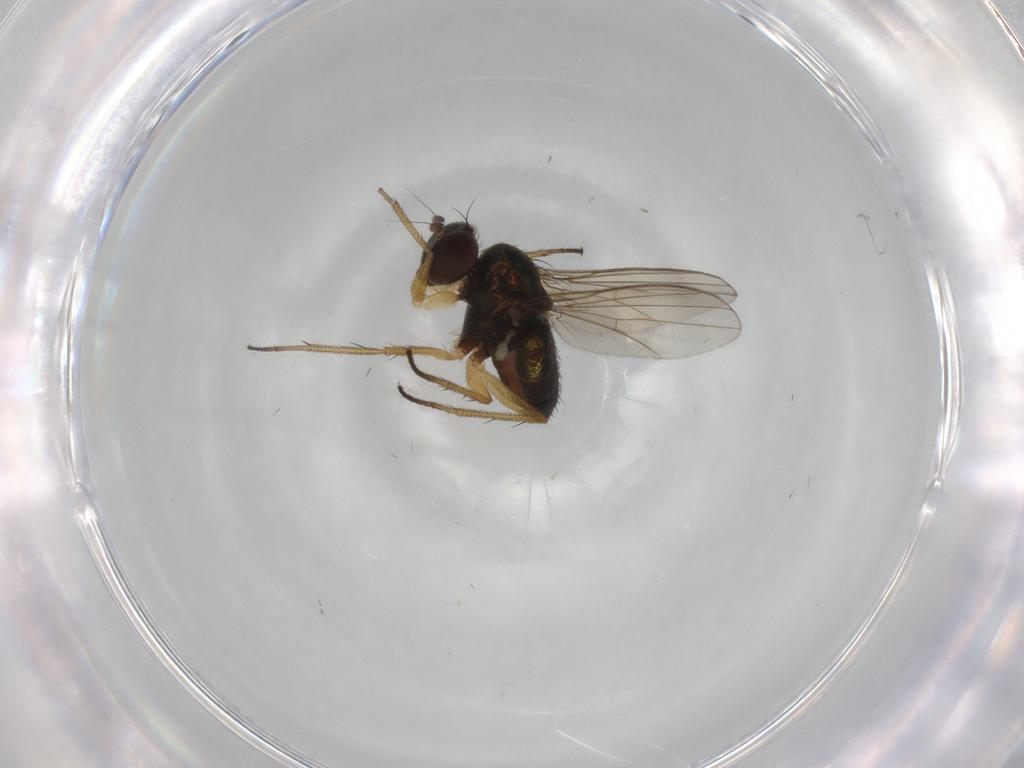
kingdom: Animalia
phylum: Arthropoda
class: Insecta
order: Diptera
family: Dolichopodidae
